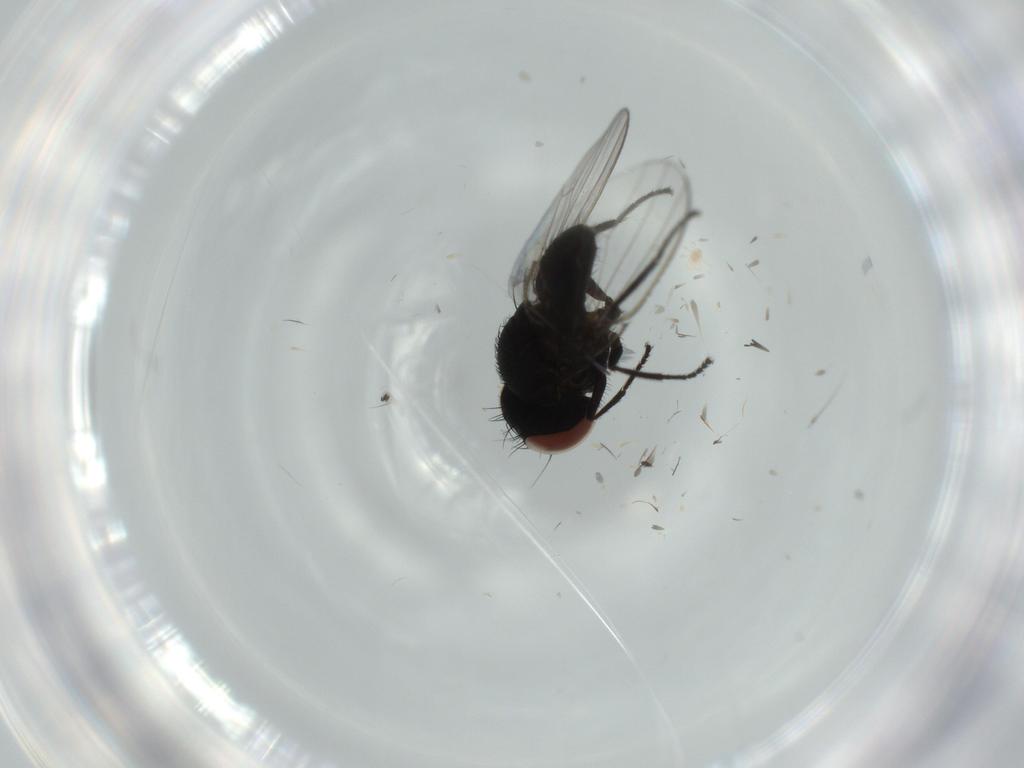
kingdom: Animalia
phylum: Arthropoda
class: Insecta
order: Diptera
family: Ceratopogonidae
